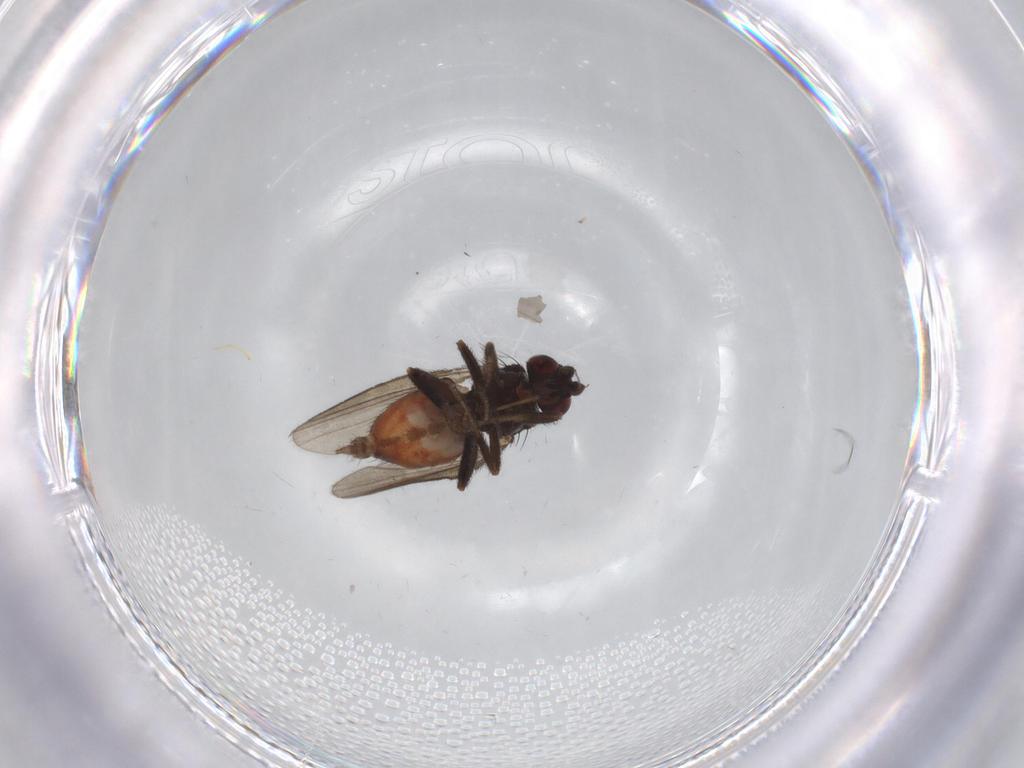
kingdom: Animalia
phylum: Arthropoda
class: Insecta
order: Diptera
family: Milichiidae
